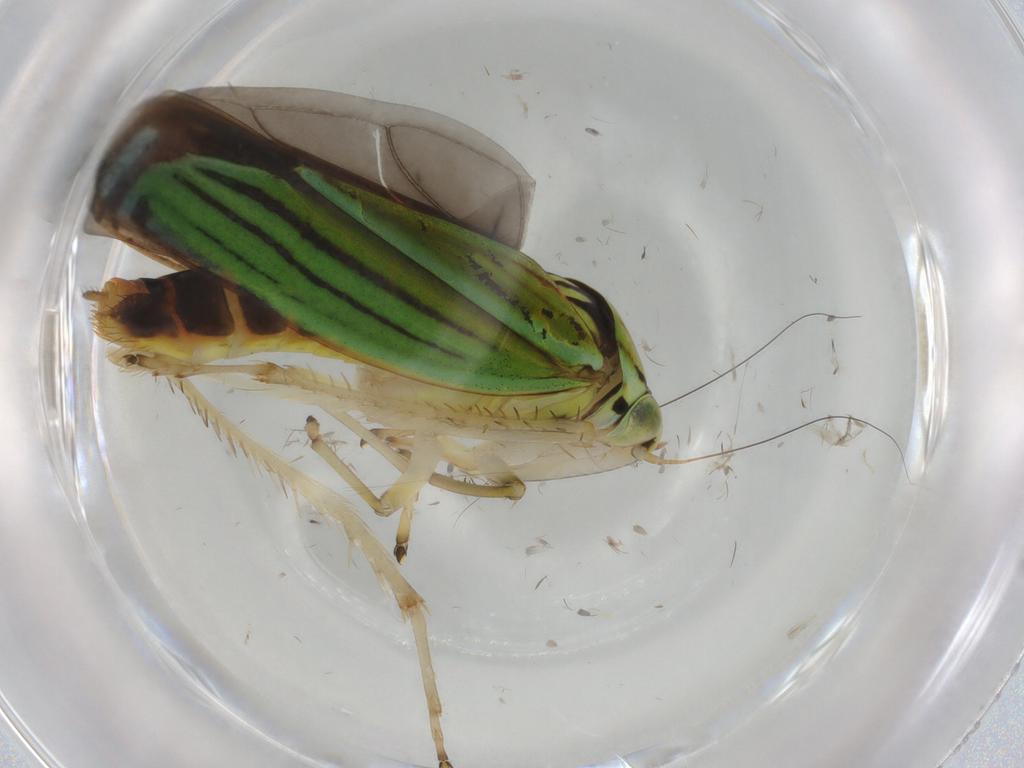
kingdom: Animalia
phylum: Arthropoda
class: Insecta
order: Hemiptera
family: Cicadellidae
